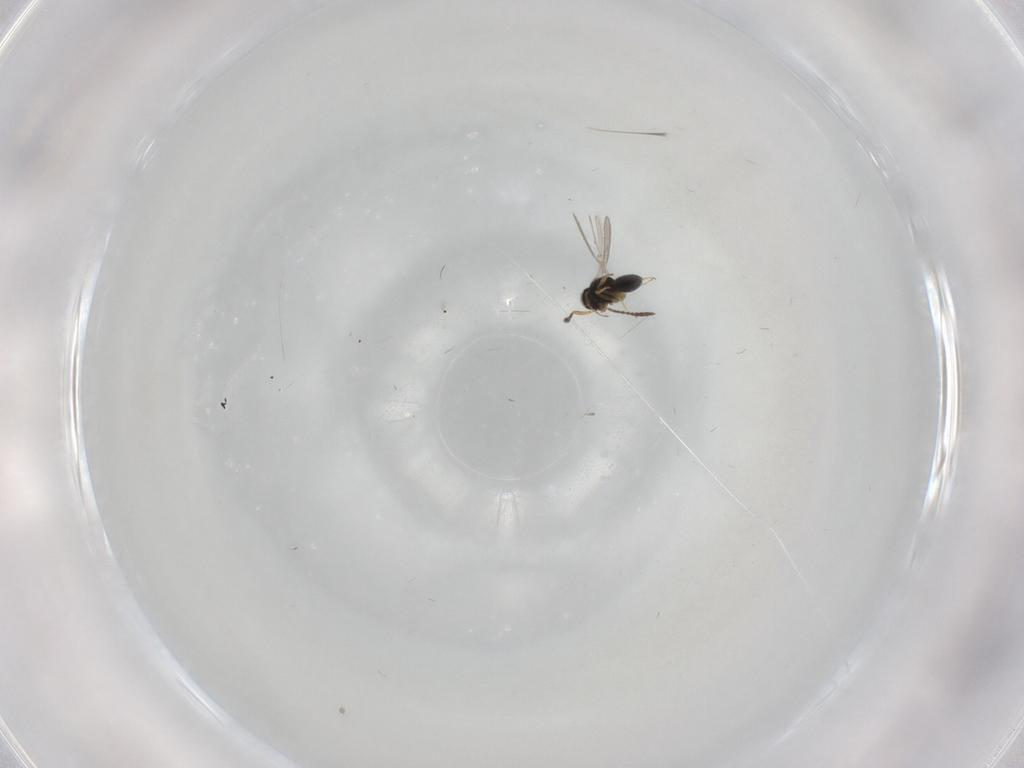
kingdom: Animalia
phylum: Arthropoda
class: Insecta
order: Hymenoptera
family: Scelionidae
